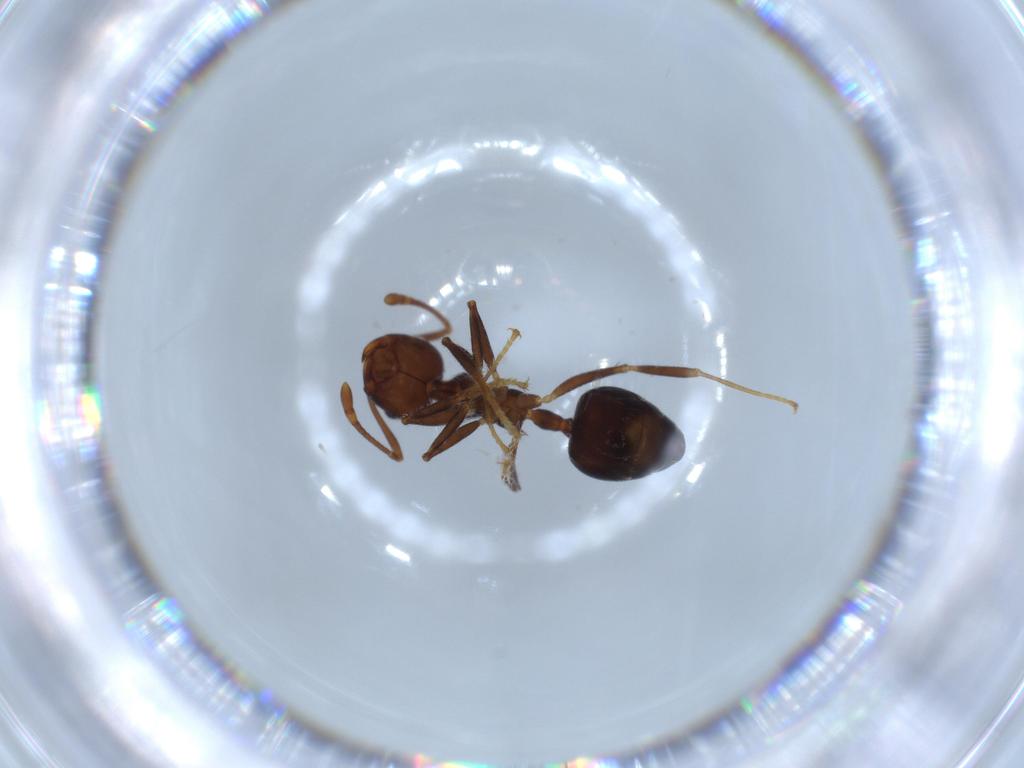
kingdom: Animalia
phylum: Arthropoda
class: Insecta
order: Hymenoptera
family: Formicidae
